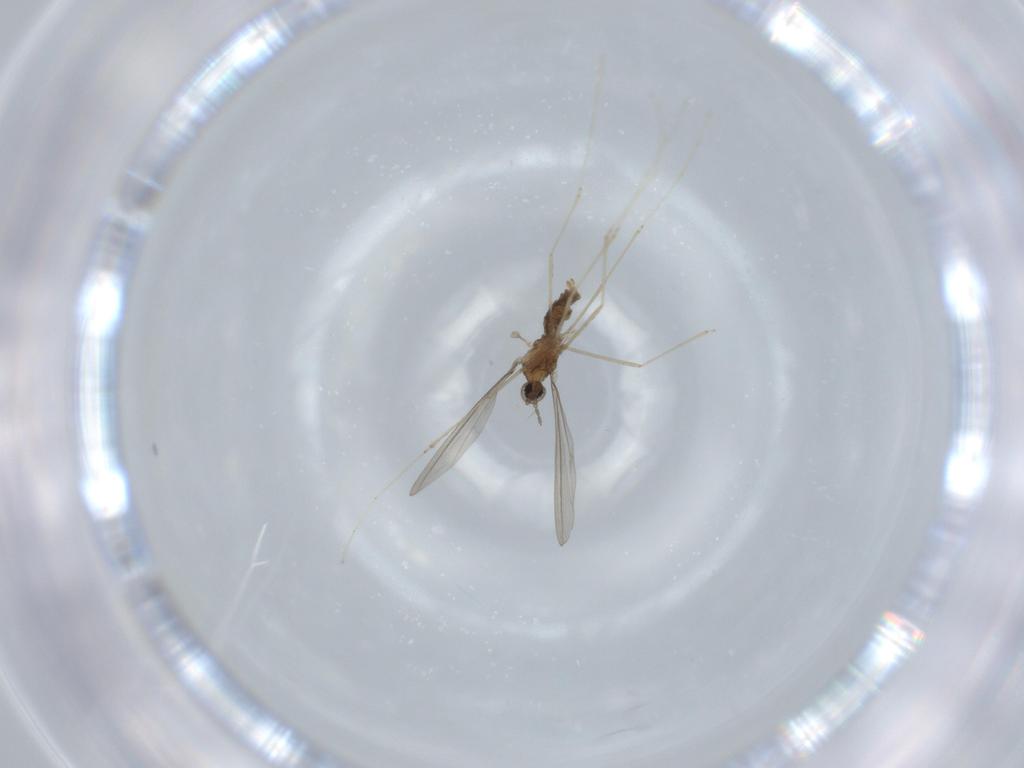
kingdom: Animalia
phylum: Arthropoda
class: Insecta
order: Diptera
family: Cecidomyiidae
